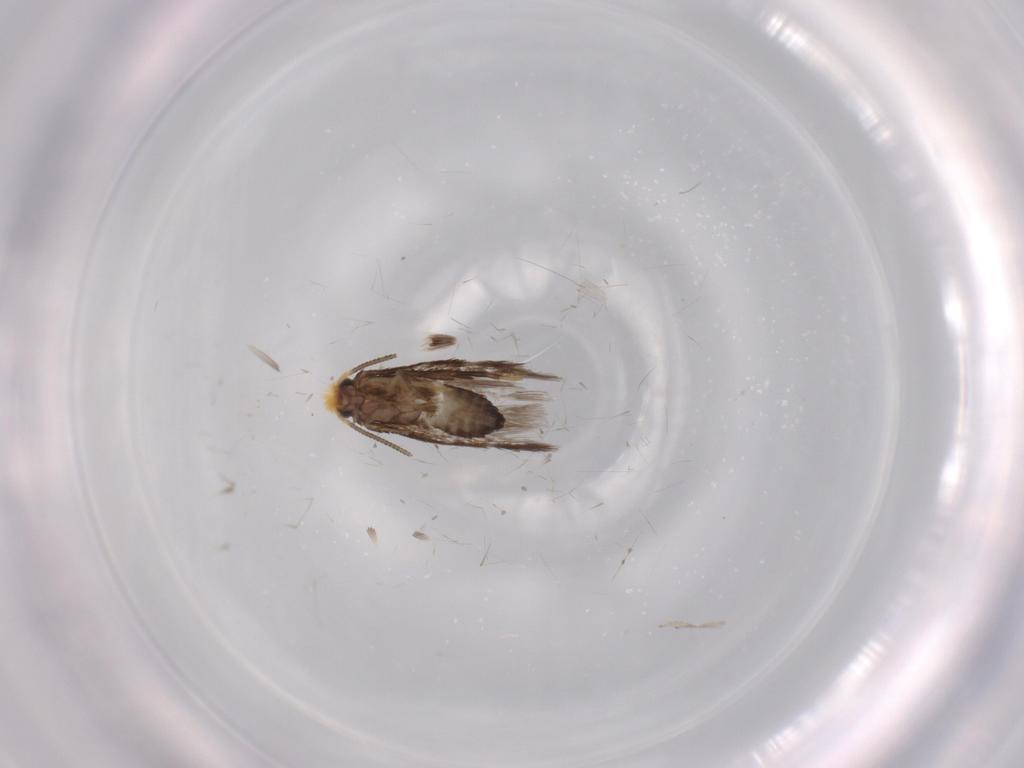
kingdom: Animalia
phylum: Arthropoda
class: Insecta
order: Lepidoptera
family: Nepticulidae
